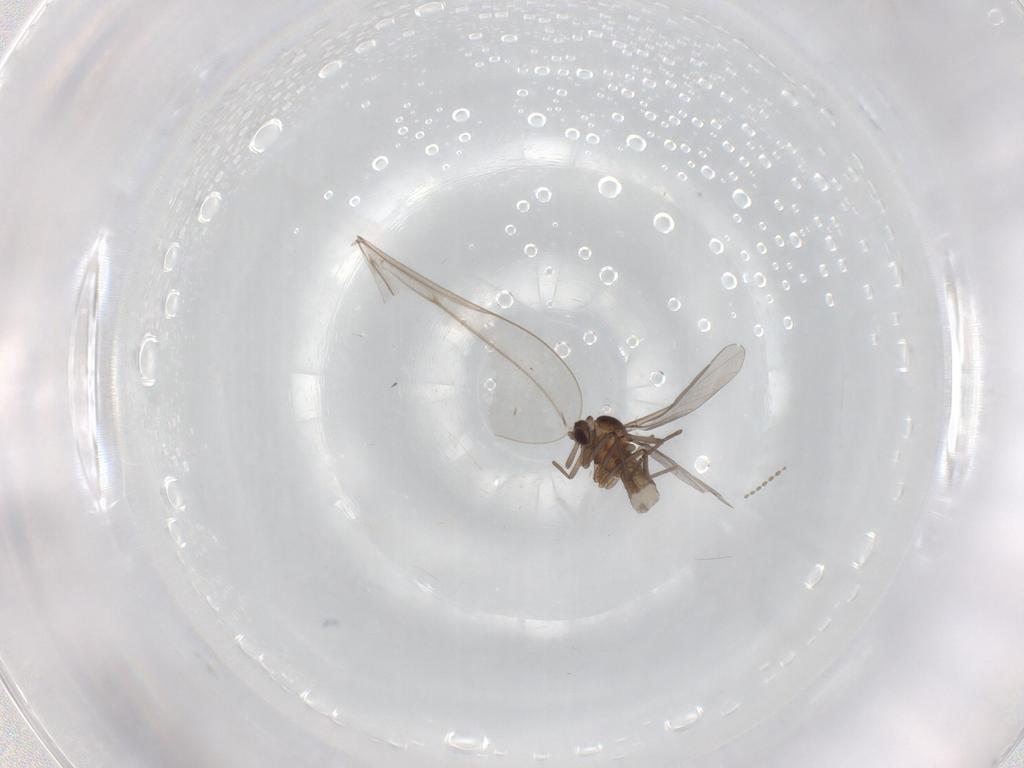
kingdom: Animalia
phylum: Arthropoda
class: Insecta
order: Diptera
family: Cecidomyiidae
